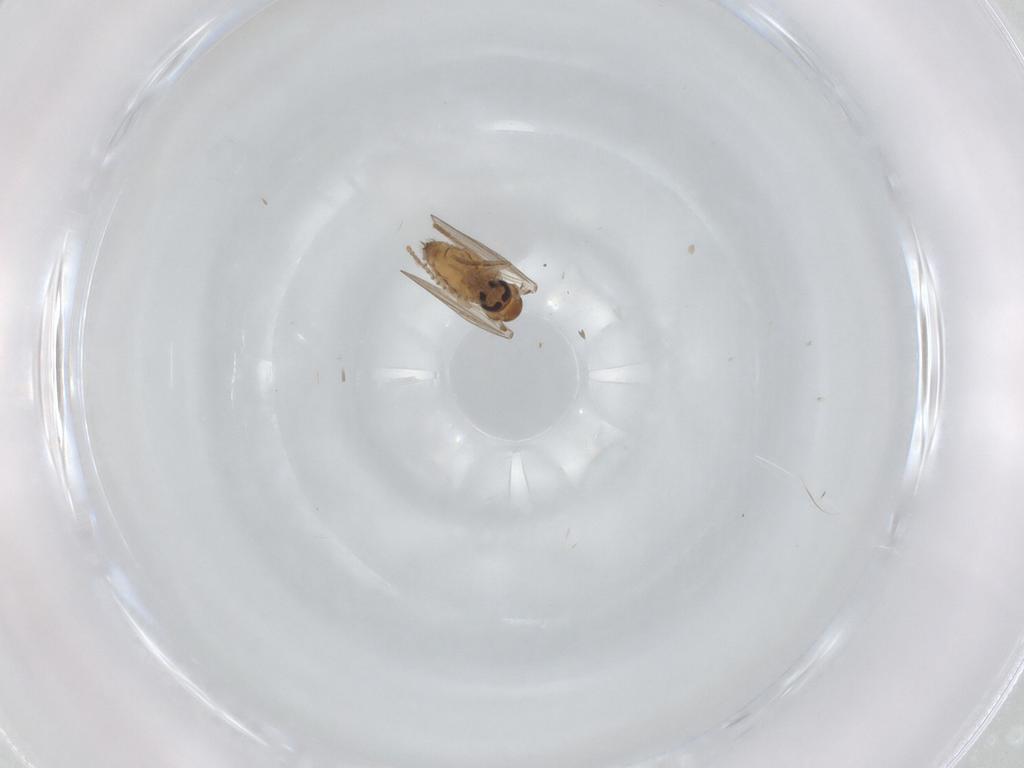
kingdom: Animalia
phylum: Arthropoda
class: Insecta
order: Diptera
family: Psychodidae
